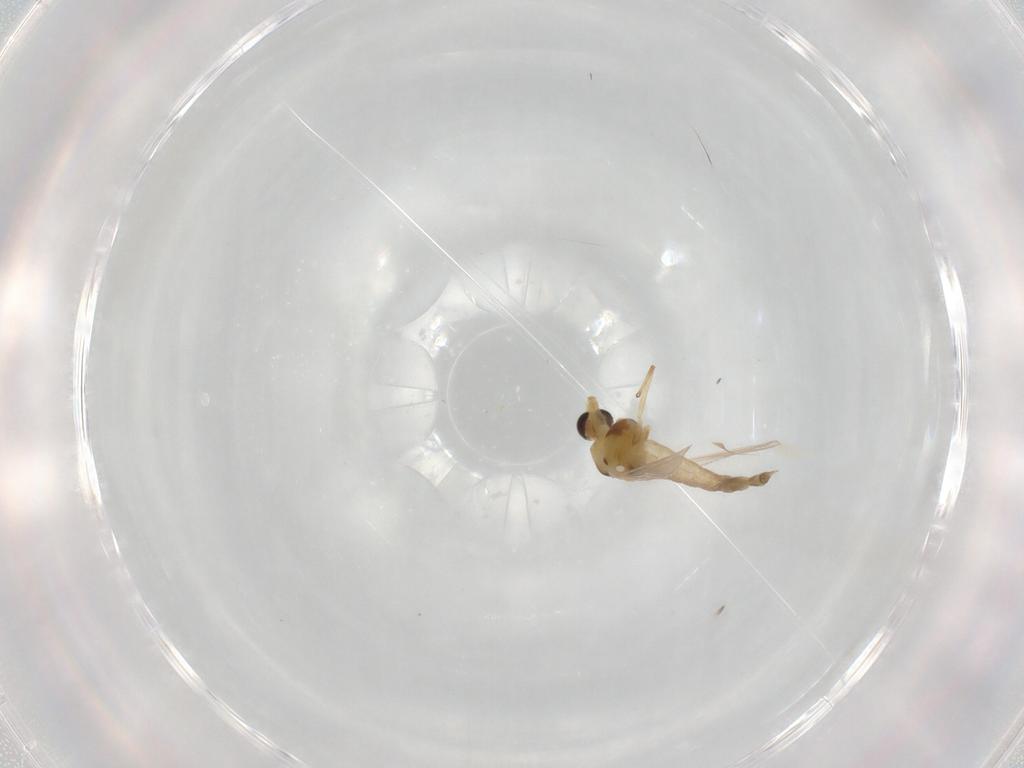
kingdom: Animalia
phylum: Arthropoda
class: Insecta
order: Diptera
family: Chironomidae
